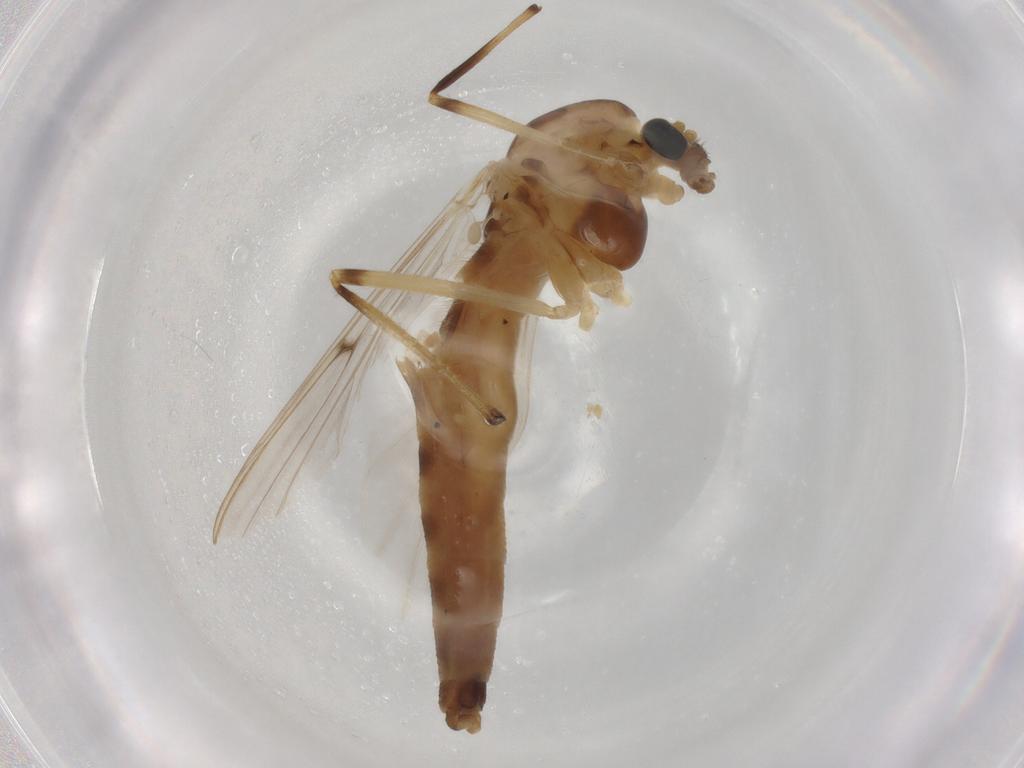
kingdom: Animalia
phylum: Arthropoda
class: Insecta
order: Diptera
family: Chironomidae
